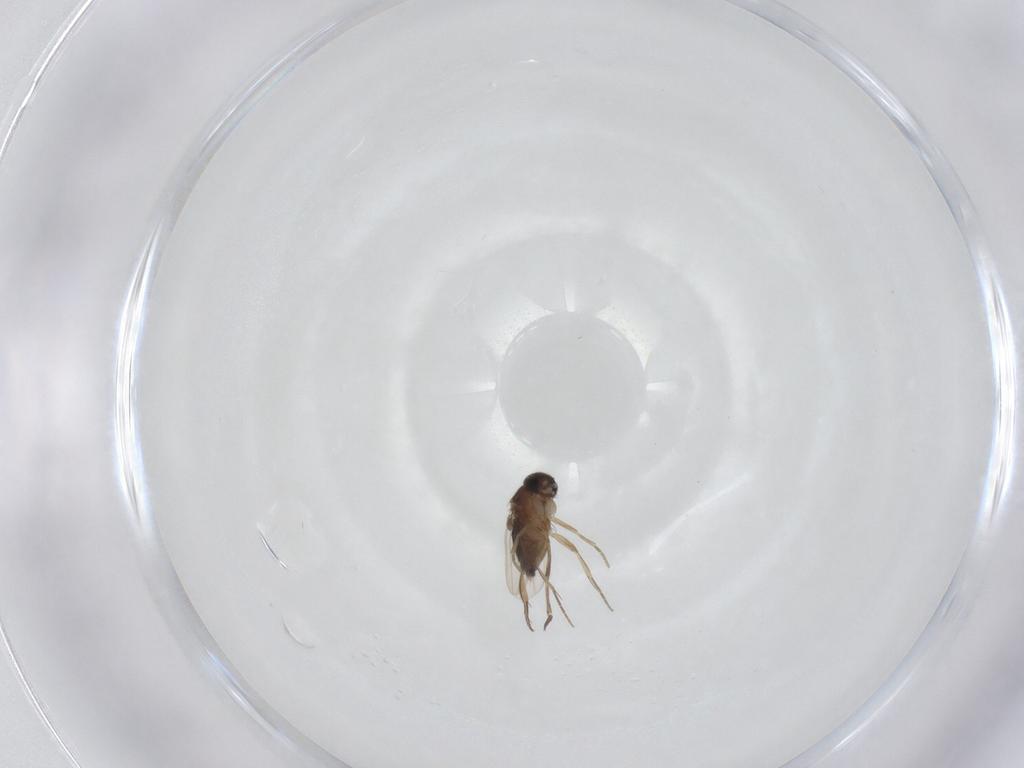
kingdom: Animalia
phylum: Arthropoda
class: Insecta
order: Diptera
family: Phoridae
